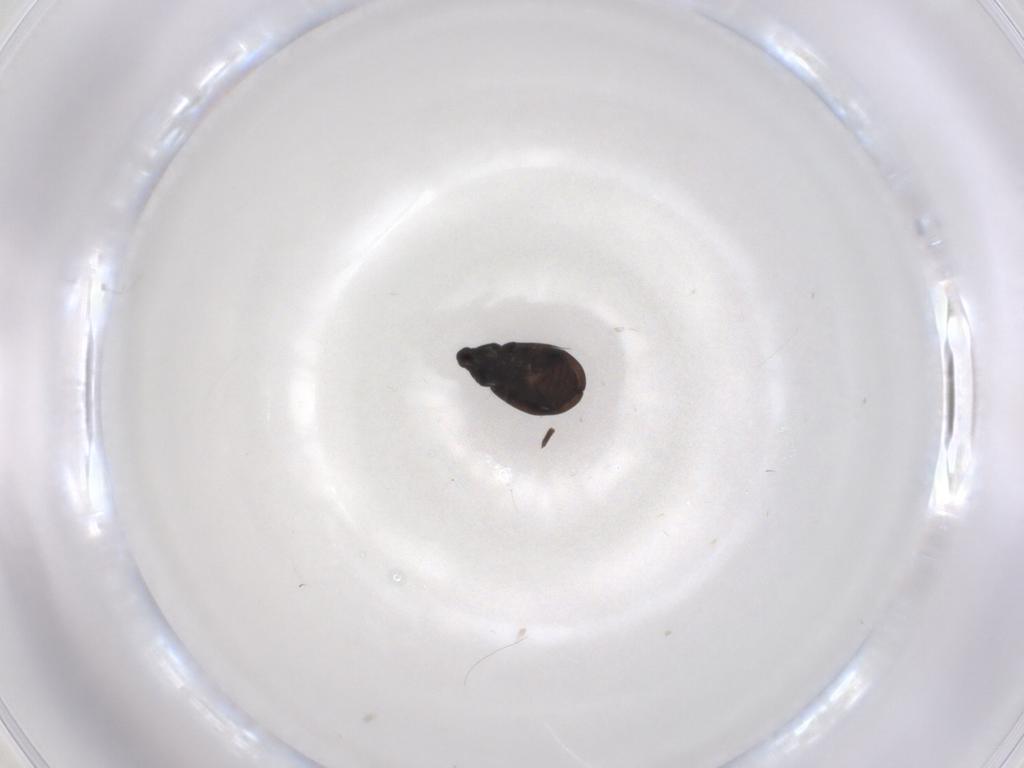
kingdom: Animalia
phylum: Arthropoda
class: Insecta
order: Coleoptera
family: Curculionidae
